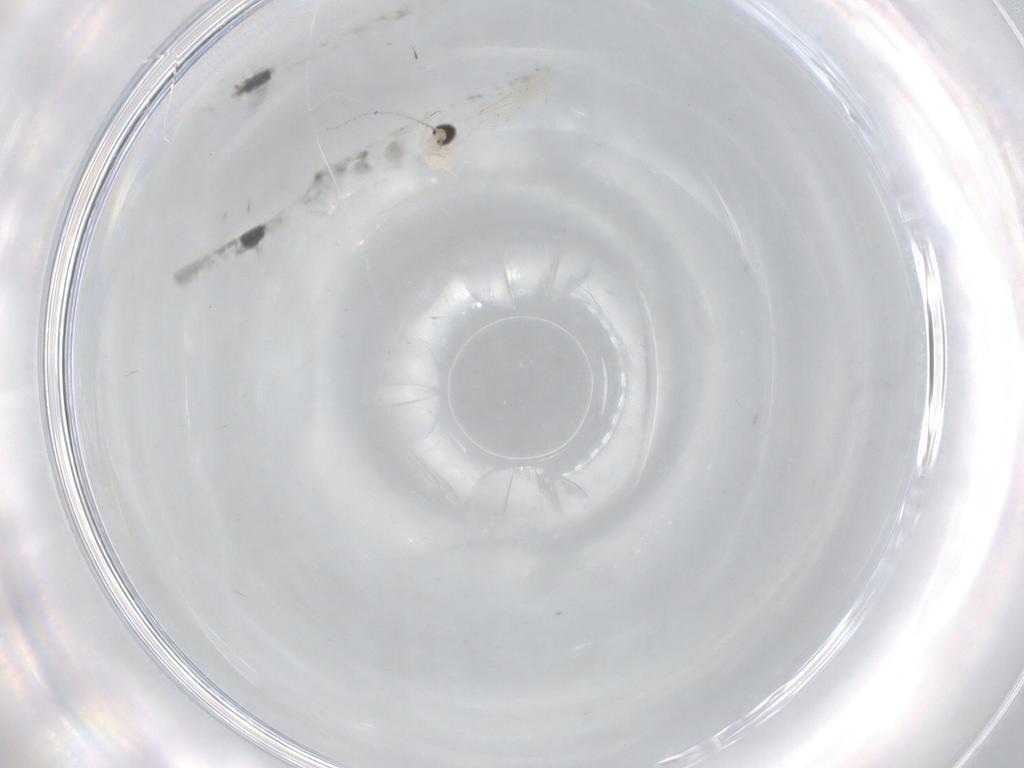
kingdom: Animalia
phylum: Arthropoda
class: Insecta
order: Diptera
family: Cecidomyiidae
